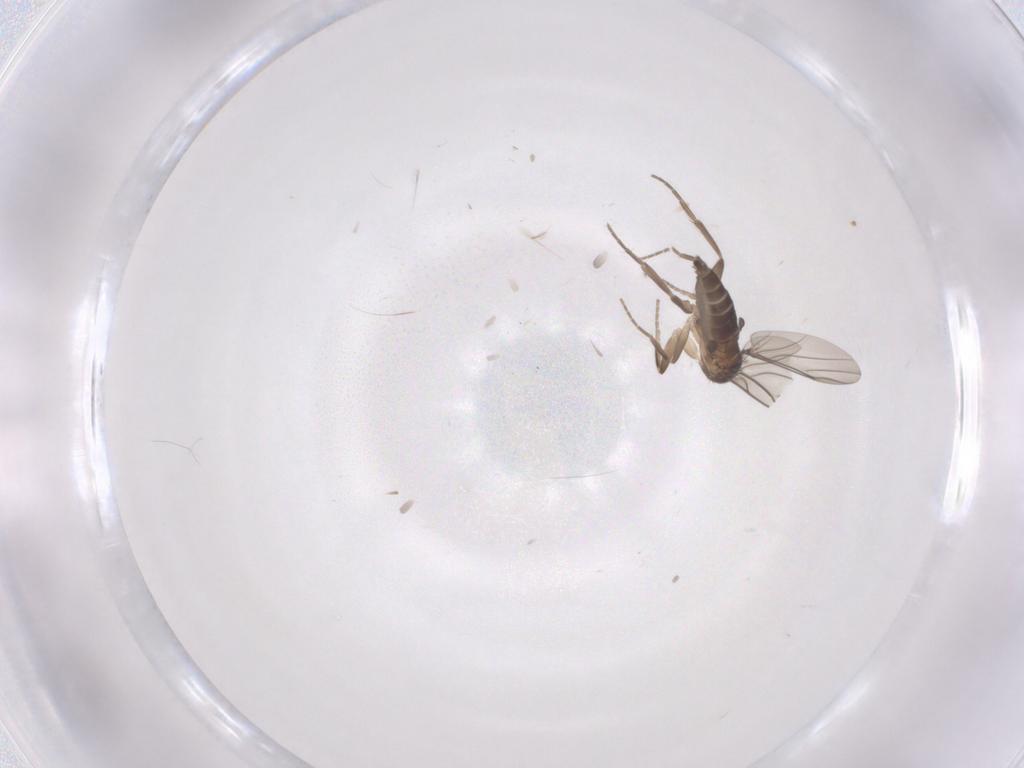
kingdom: Animalia
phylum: Arthropoda
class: Insecta
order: Diptera
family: Phoridae
